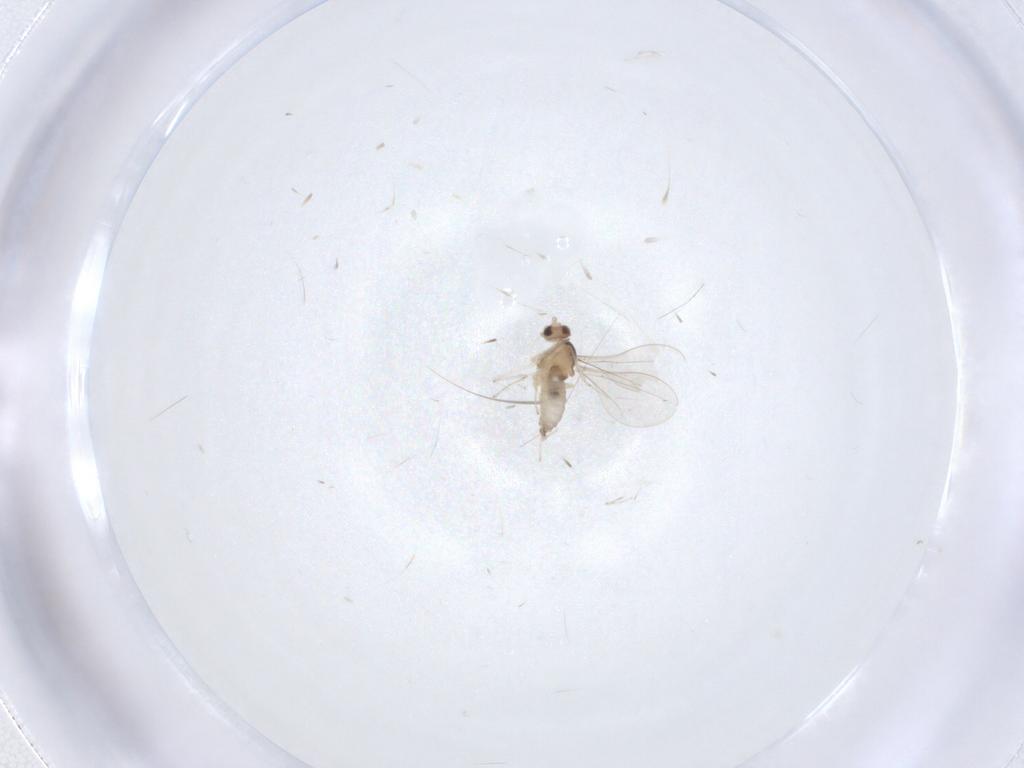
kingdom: Animalia
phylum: Arthropoda
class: Insecta
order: Diptera
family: Cecidomyiidae
